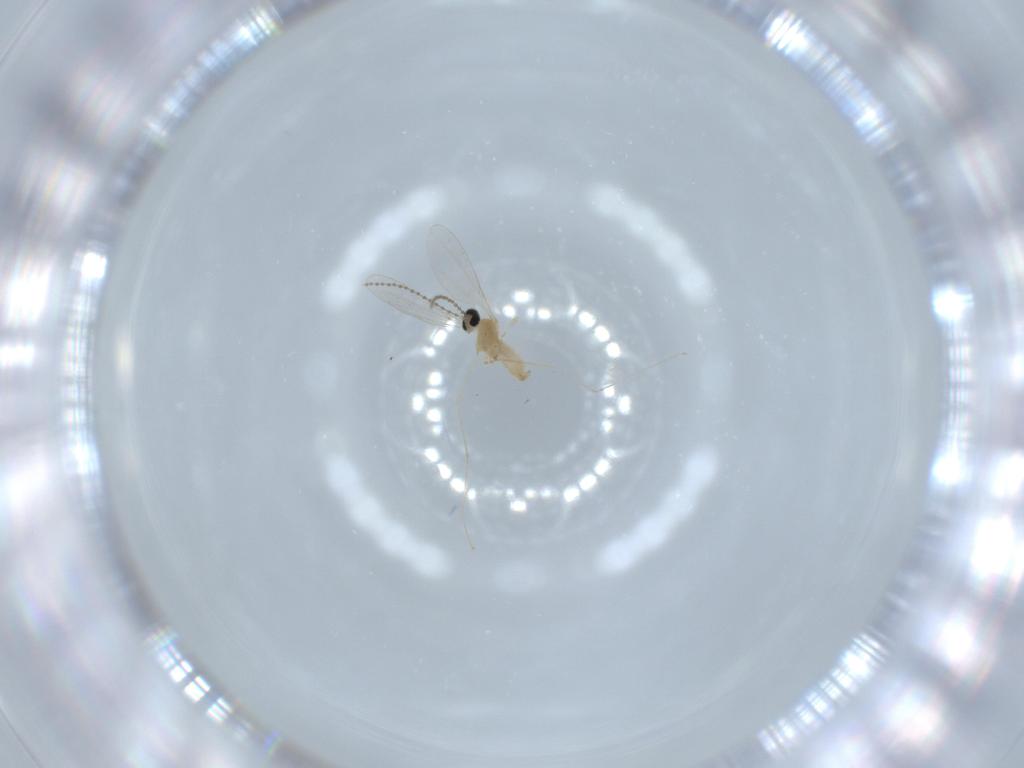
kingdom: Animalia
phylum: Arthropoda
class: Insecta
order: Diptera
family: Cecidomyiidae
